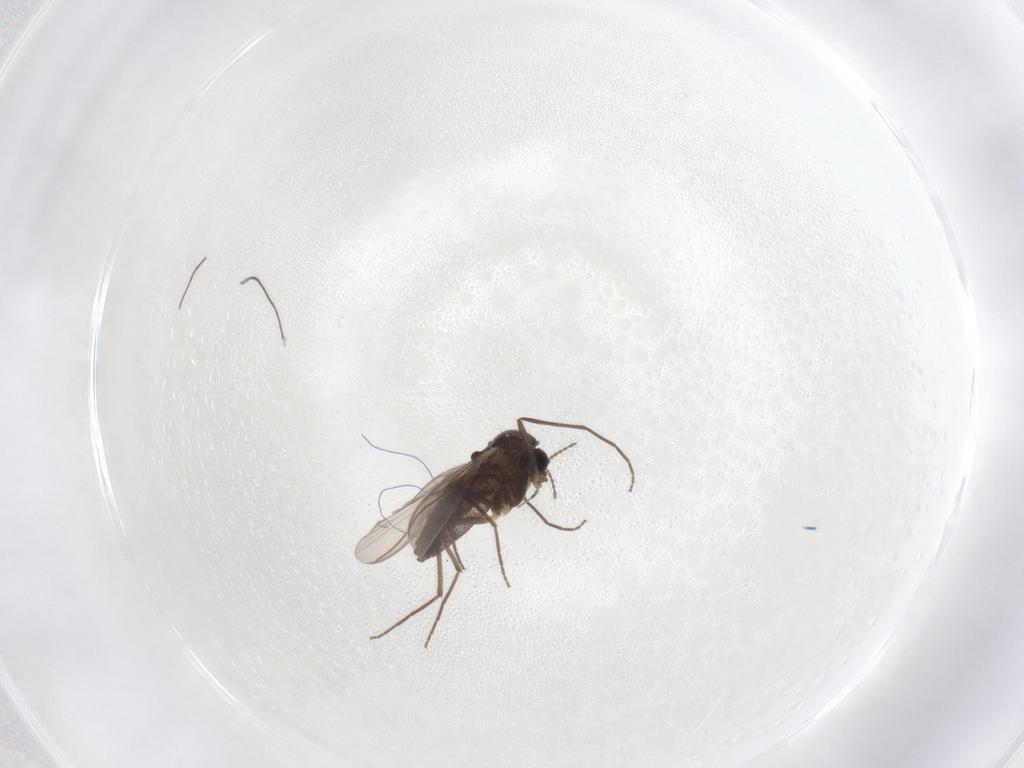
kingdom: Animalia
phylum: Arthropoda
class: Insecta
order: Diptera
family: Chironomidae
